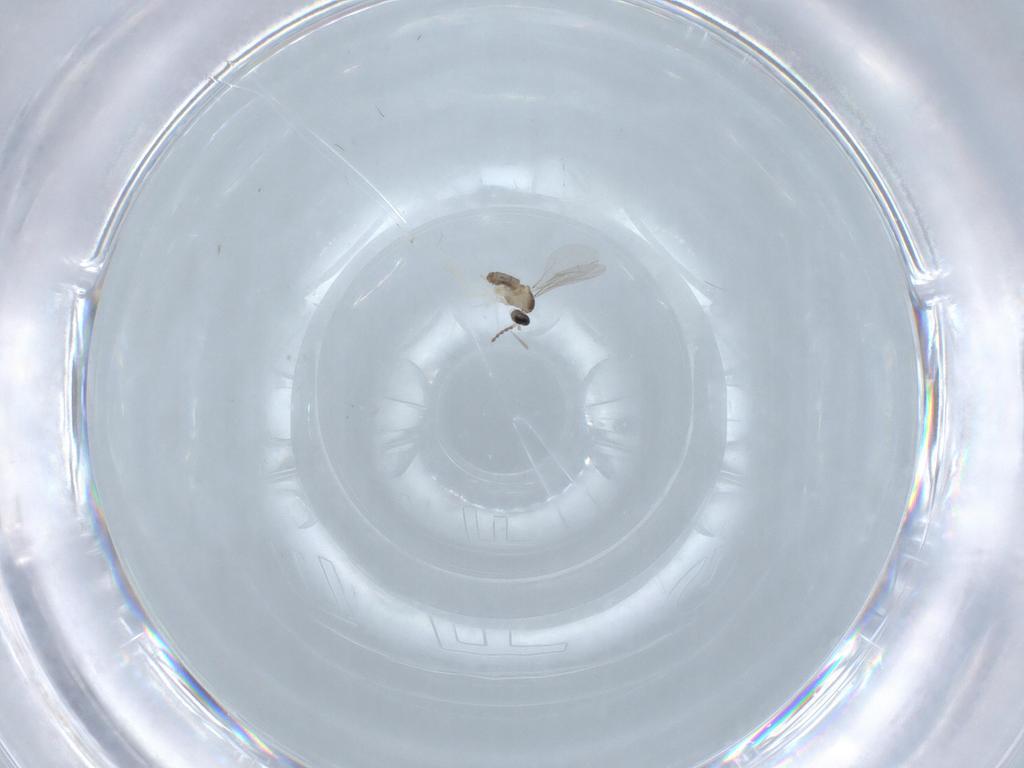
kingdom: Animalia
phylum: Arthropoda
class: Insecta
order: Diptera
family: Cecidomyiidae
